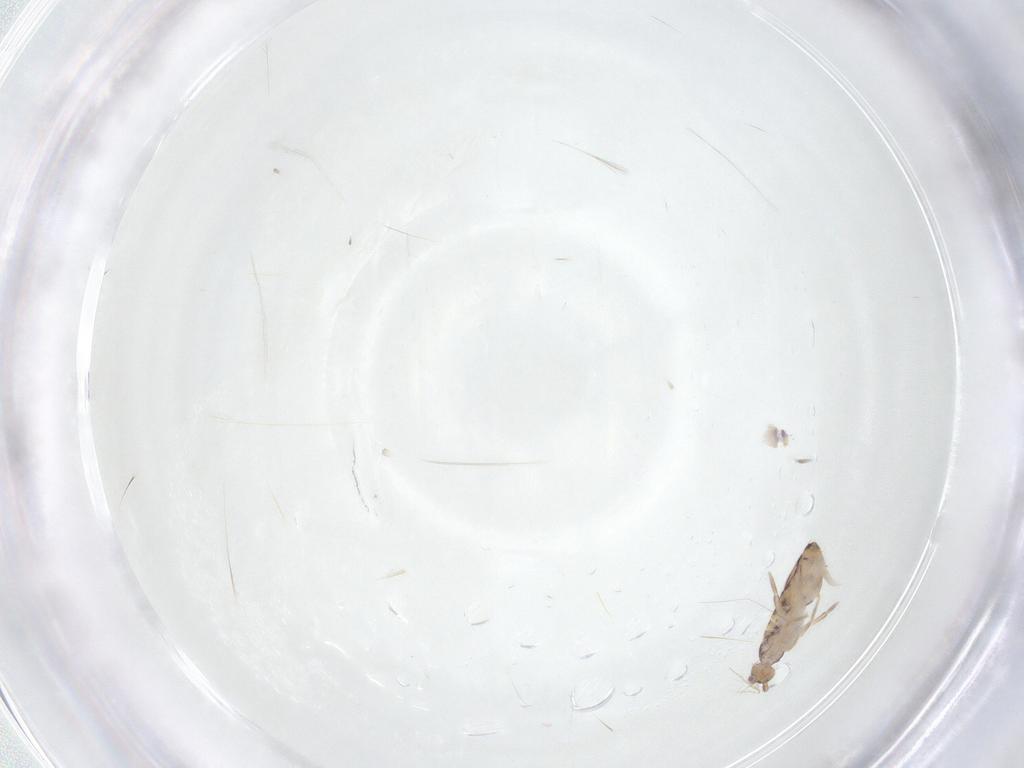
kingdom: Animalia
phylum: Arthropoda
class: Collembola
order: Entomobryomorpha
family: Entomobryidae
